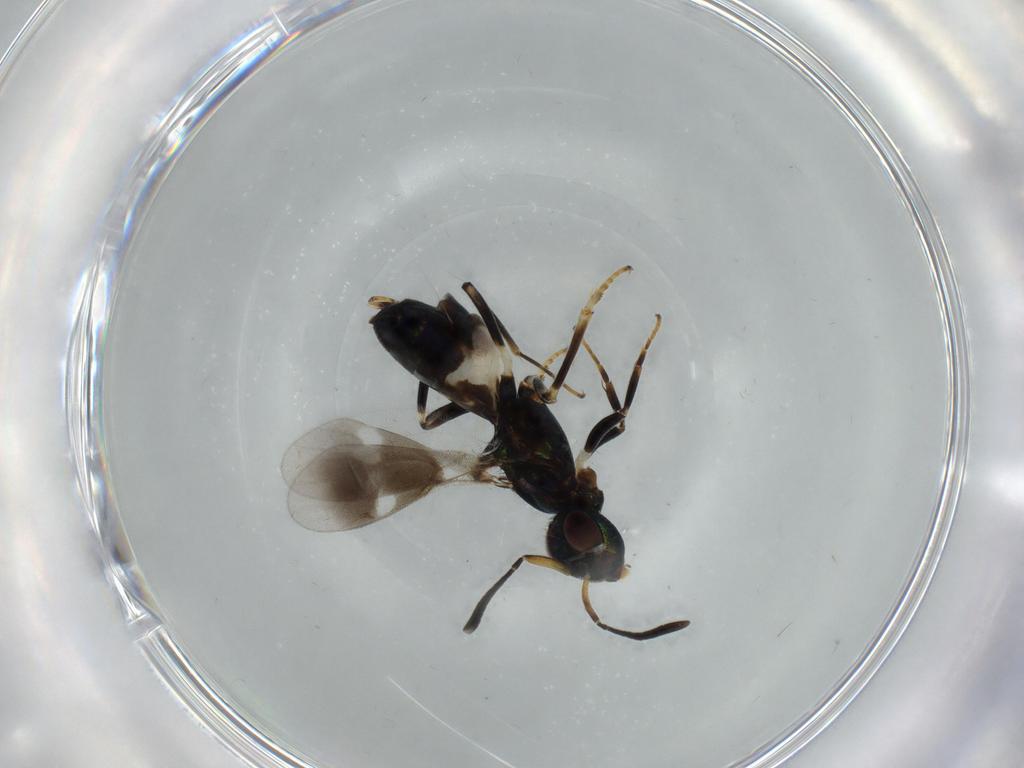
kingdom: Animalia
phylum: Arthropoda
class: Insecta
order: Hymenoptera
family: Eupelmidae
